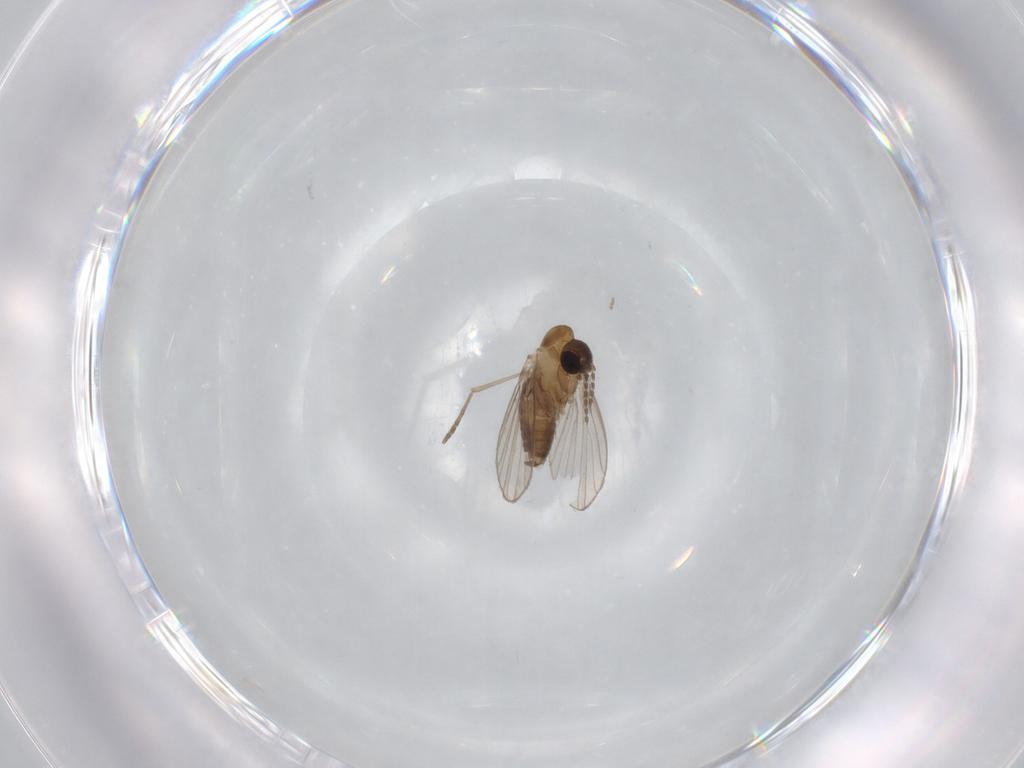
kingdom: Animalia
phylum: Arthropoda
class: Insecta
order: Diptera
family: Psychodidae
